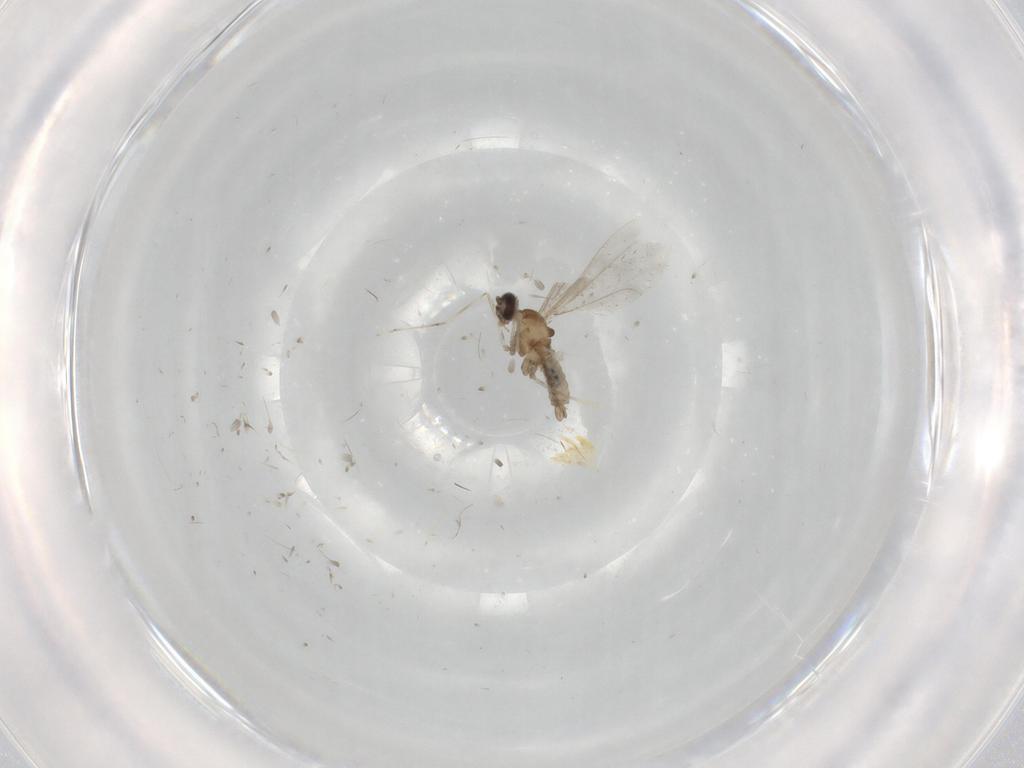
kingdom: Animalia
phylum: Arthropoda
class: Insecta
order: Diptera
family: Cecidomyiidae
